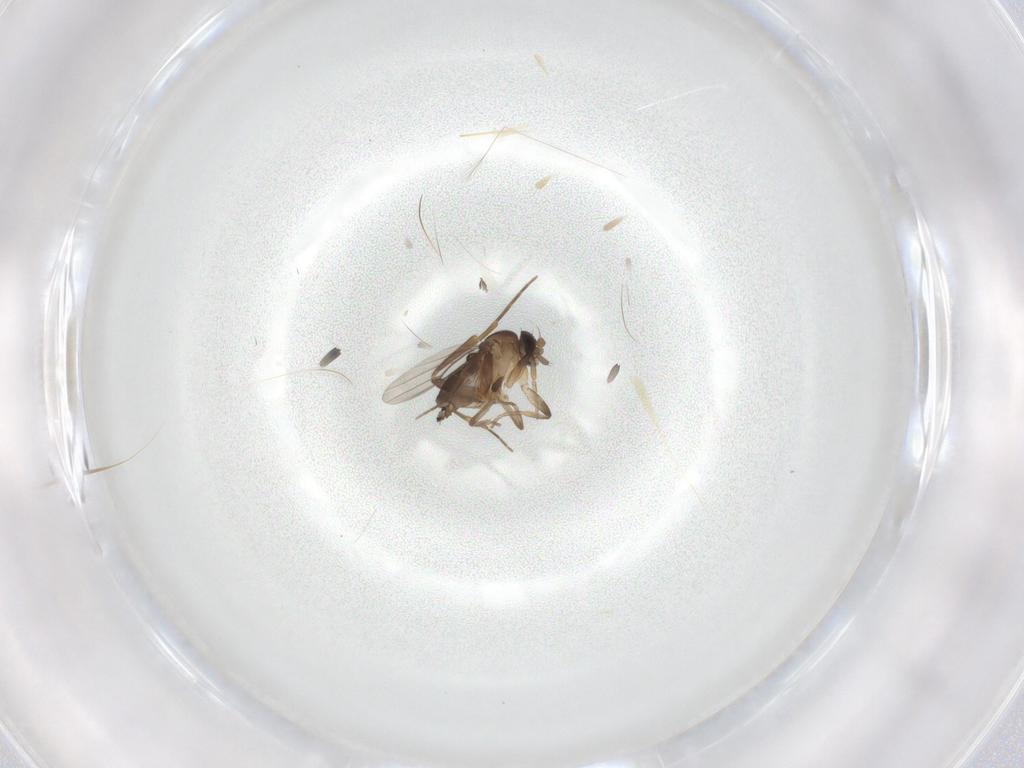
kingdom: Animalia
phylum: Arthropoda
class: Insecta
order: Diptera
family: Phoridae
